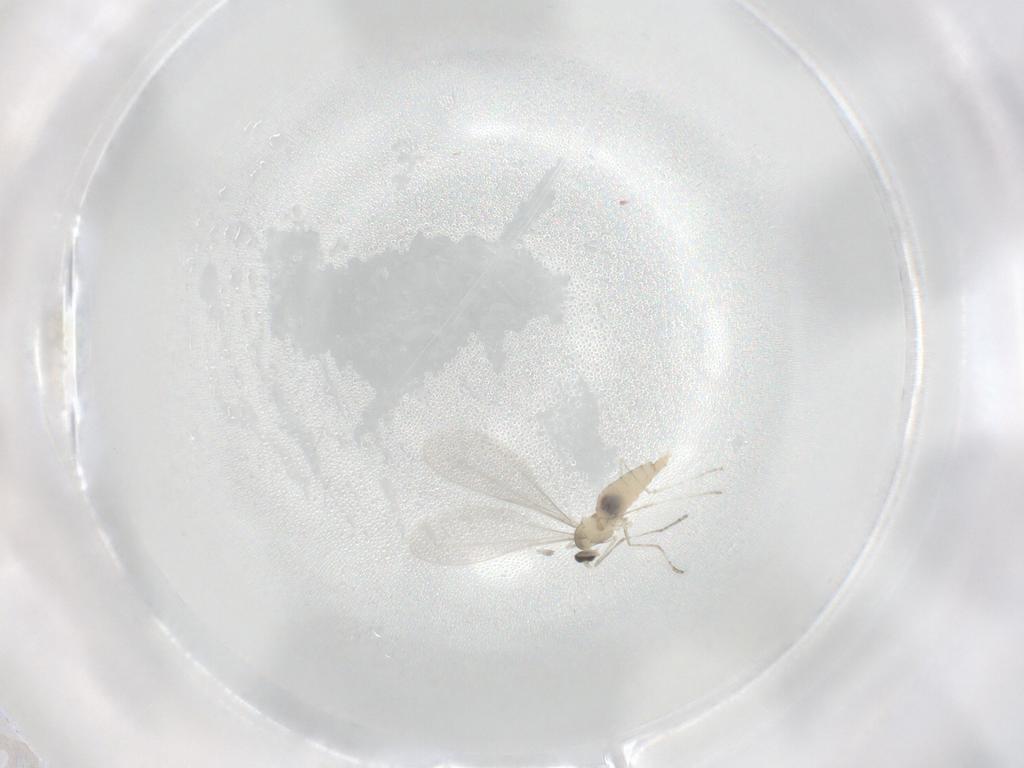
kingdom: Animalia
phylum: Arthropoda
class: Insecta
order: Diptera
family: Cecidomyiidae
